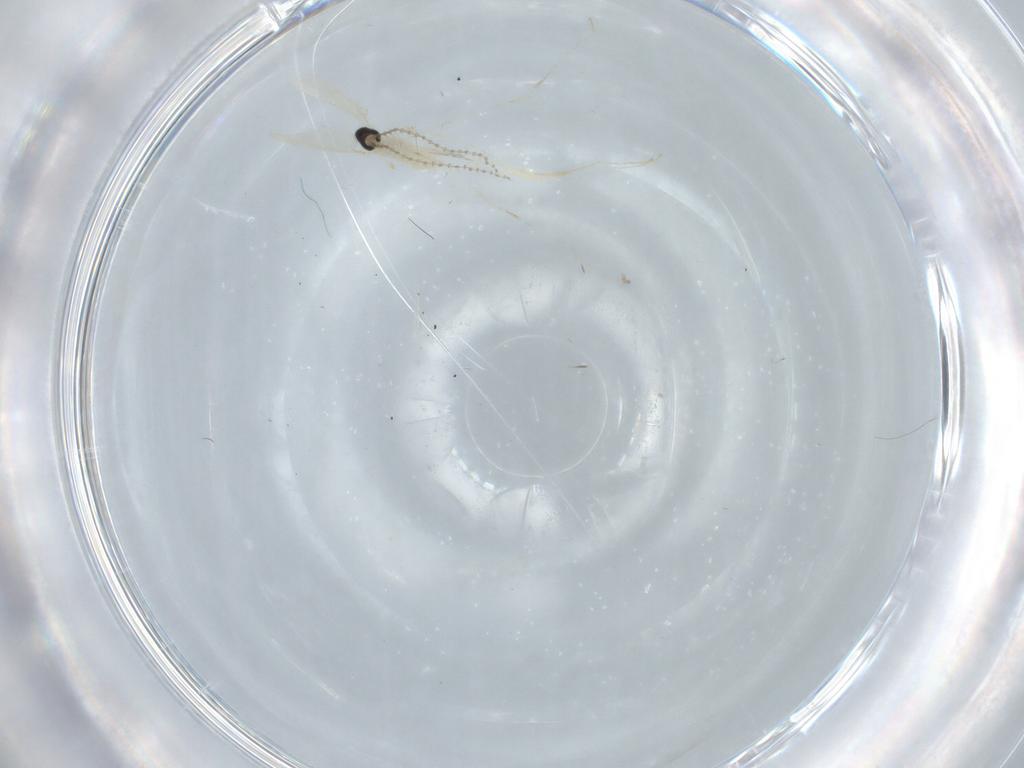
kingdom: Animalia
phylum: Arthropoda
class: Insecta
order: Diptera
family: Cecidomyiidae
